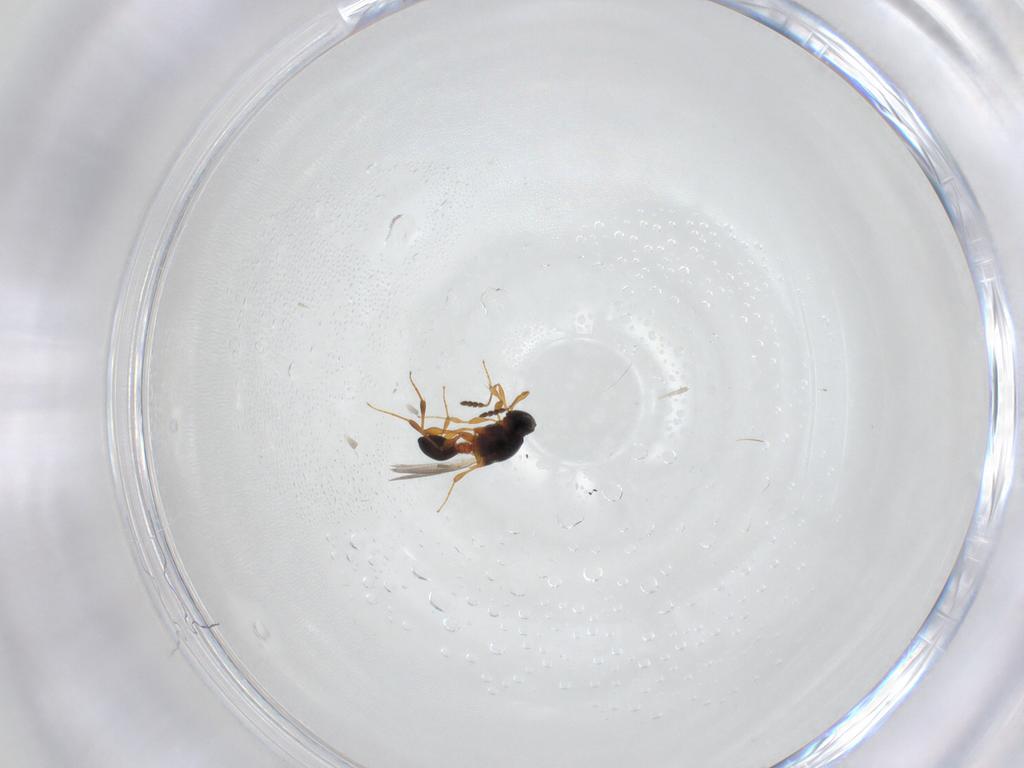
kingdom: Animalia
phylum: Arthropoda
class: Insecta
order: Hymenoptera
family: Platygastridae
